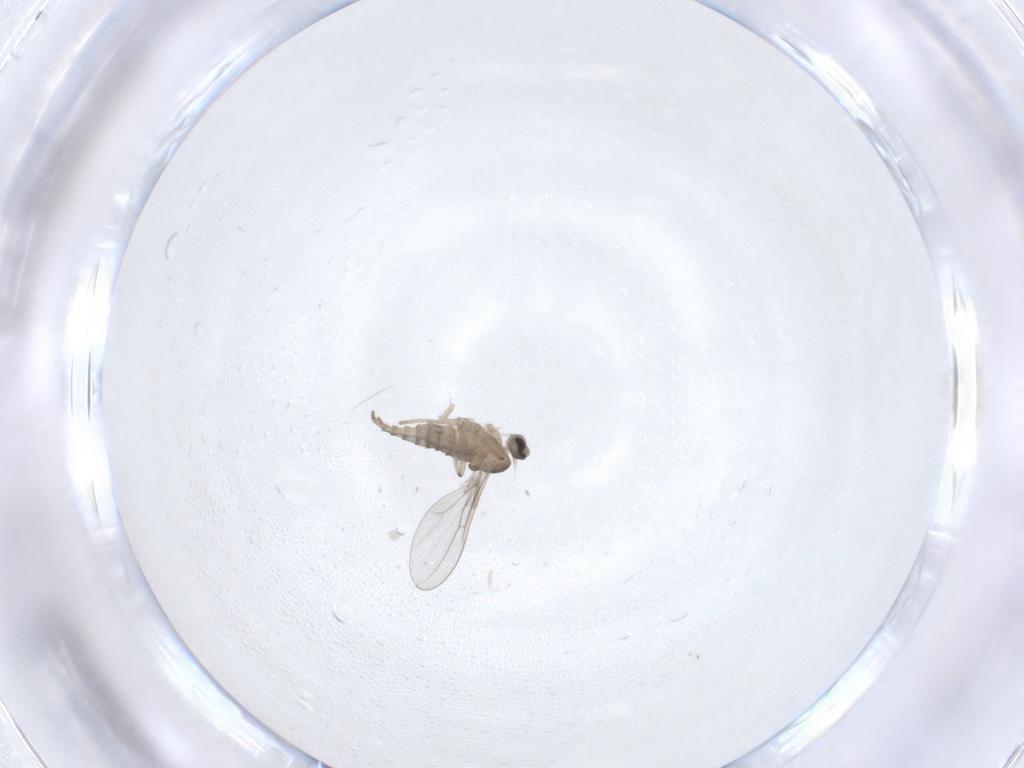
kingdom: Animalia
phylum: Arthropoda
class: Insecta
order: Diptera
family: Cecidomyiidae
